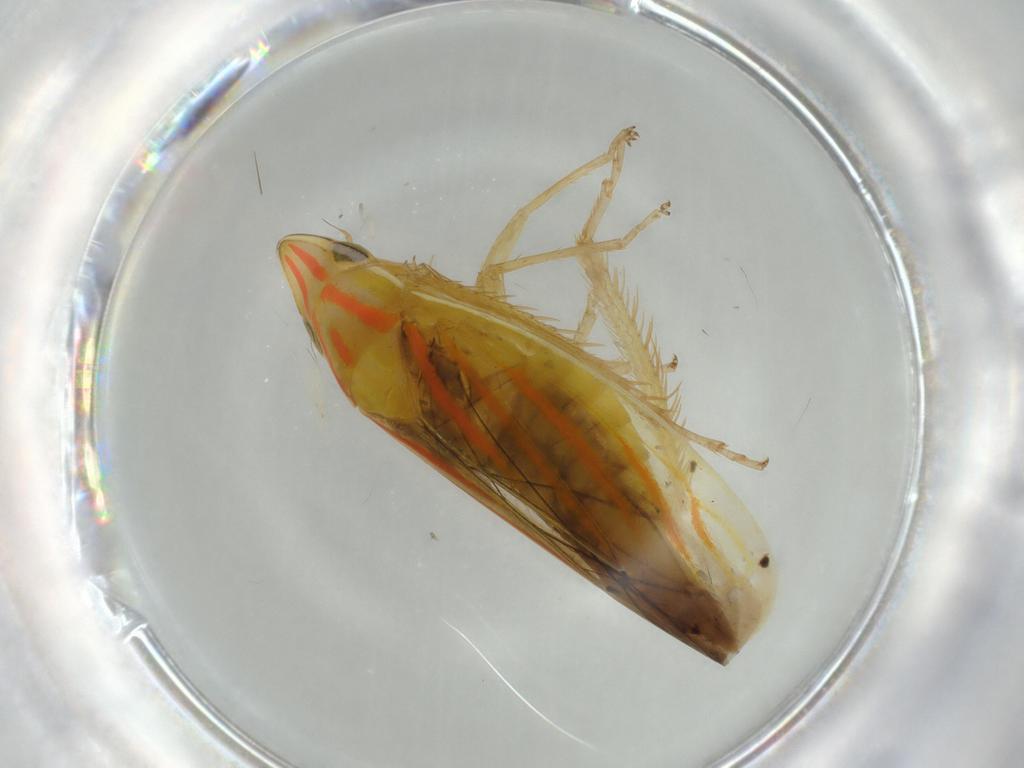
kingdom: Animalia
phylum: Arthropoda
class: Insecta
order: Hemiptera
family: Cicadellidae
